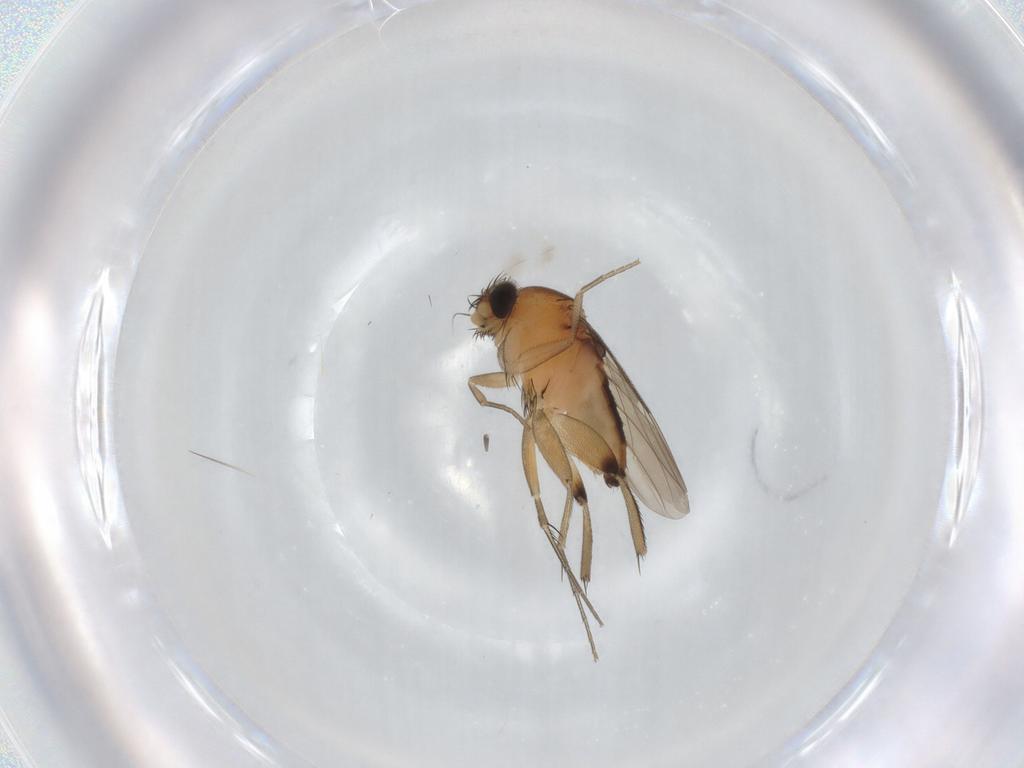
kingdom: Animalia
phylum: Arthropoda
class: Insecta
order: Diptera
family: Phoridae
